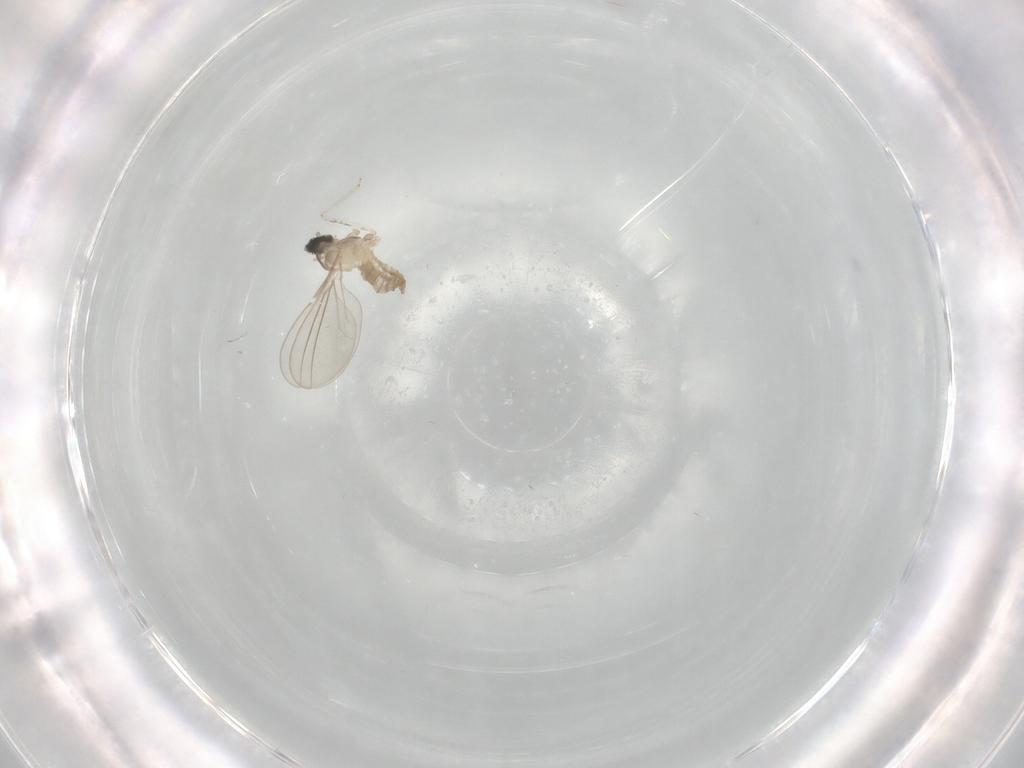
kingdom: Animalia
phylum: Arthropoda
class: Insecta
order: Diptera
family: Cecidomyiidae
